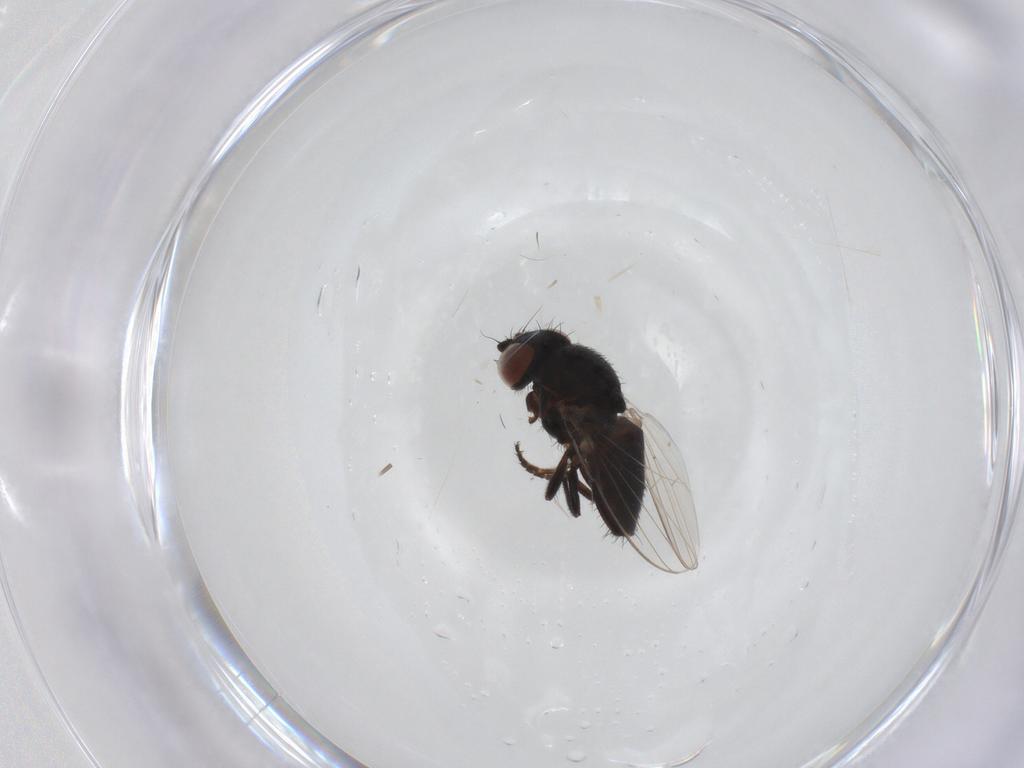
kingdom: Animalia
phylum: Arthropoda
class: Insecta
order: Diptera
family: Chloropidae
